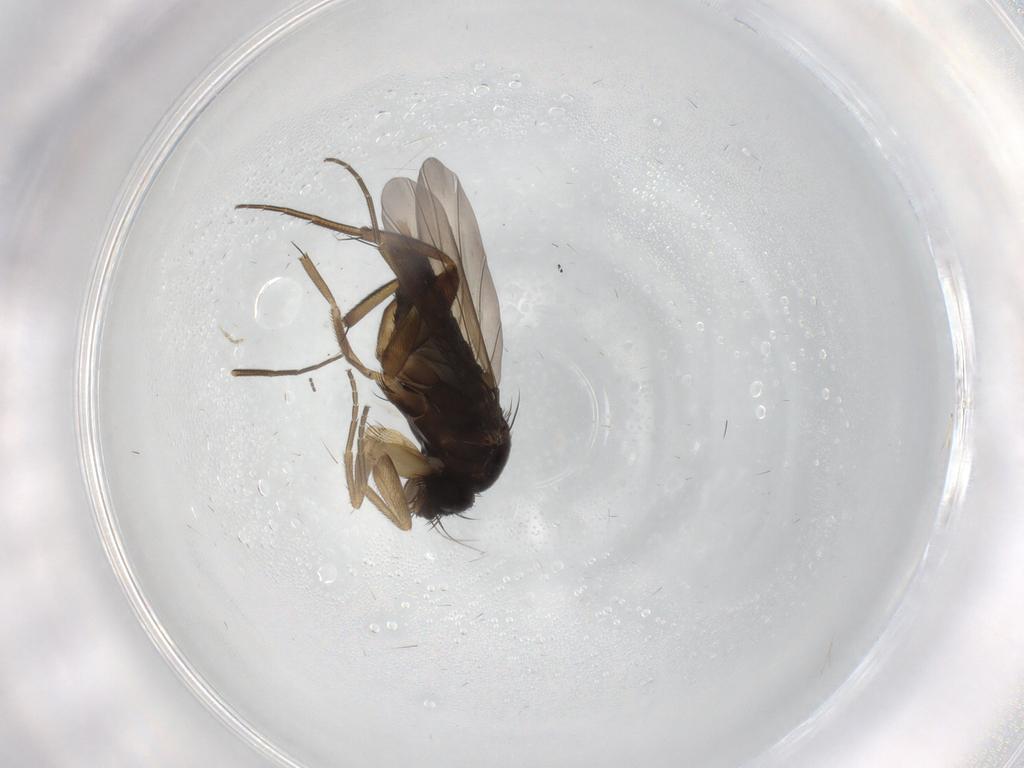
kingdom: Animalia
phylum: Arthropoda
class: Insecta
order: Diptera
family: Phoridae
